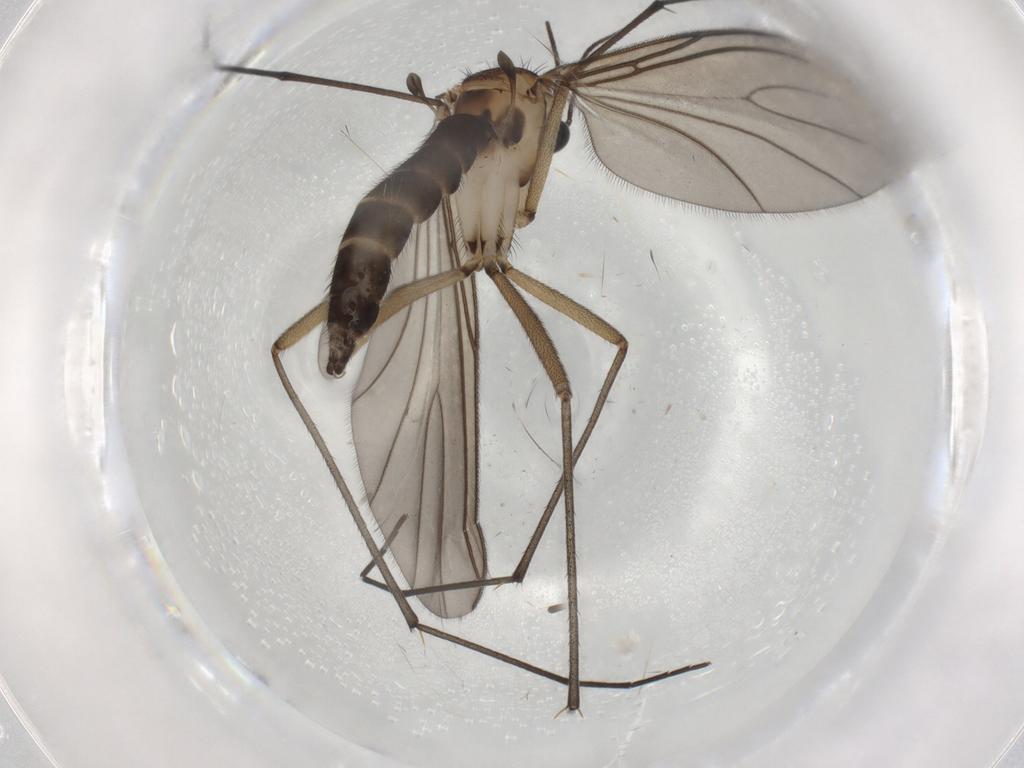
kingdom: Animalia
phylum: Arthropoda
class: Insecta
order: Diptera
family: Sciaridae
